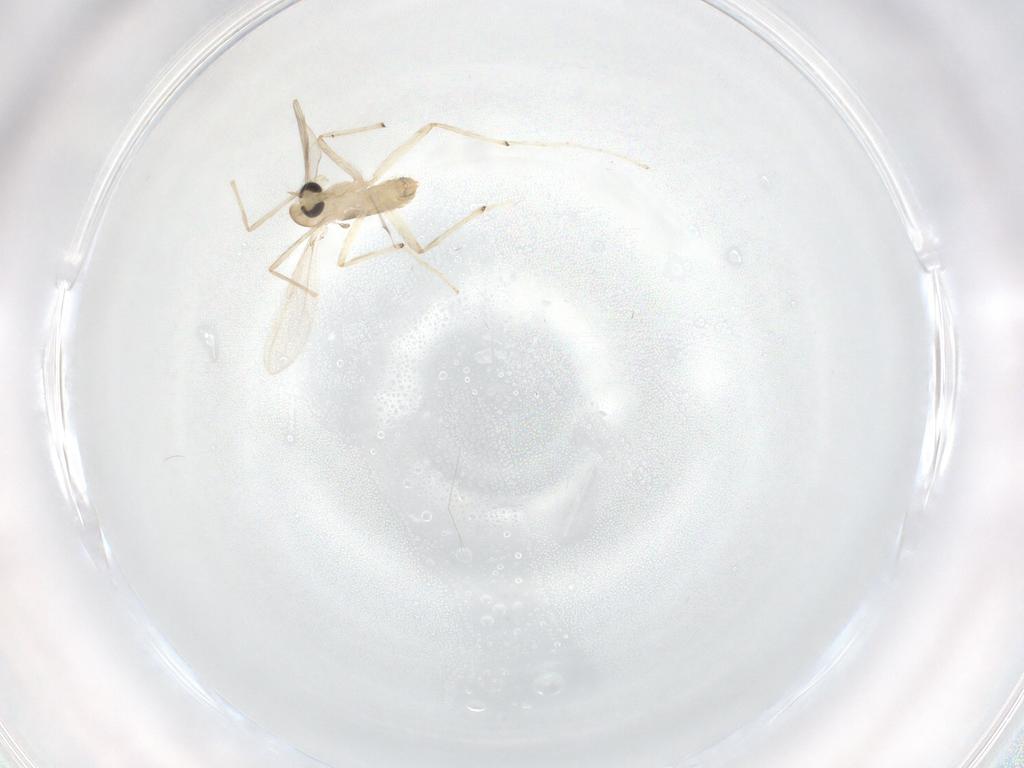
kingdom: Animalia
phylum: Arthropoda
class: Insecta
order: Diptera
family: Chironomidae
